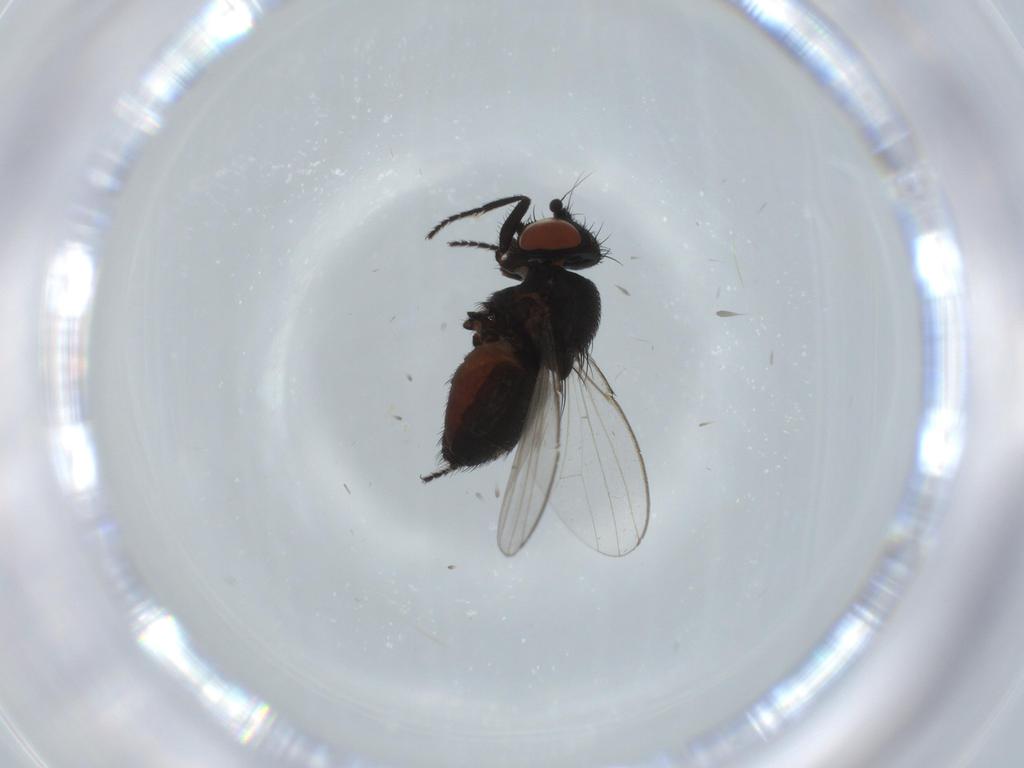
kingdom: Animalia
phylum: Arthropoda
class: Insecta
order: Diptera
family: Milichiidae
